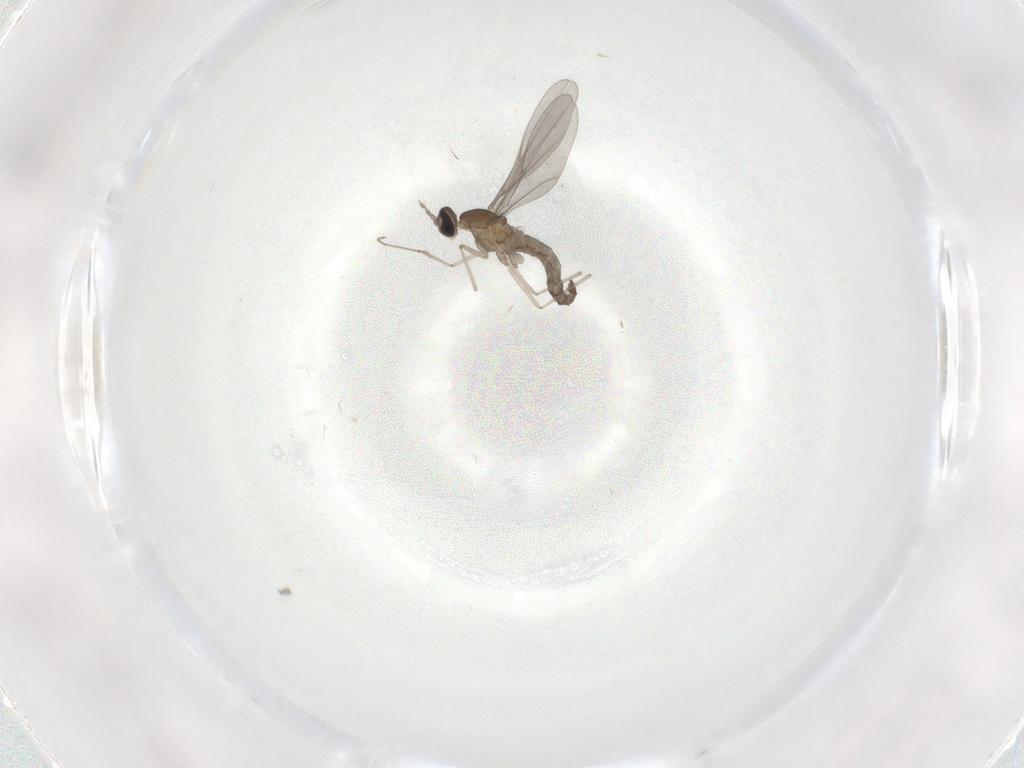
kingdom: Animalia
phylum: Arthropoda
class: Insecta
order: Diptera
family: Cecidomyiidae
